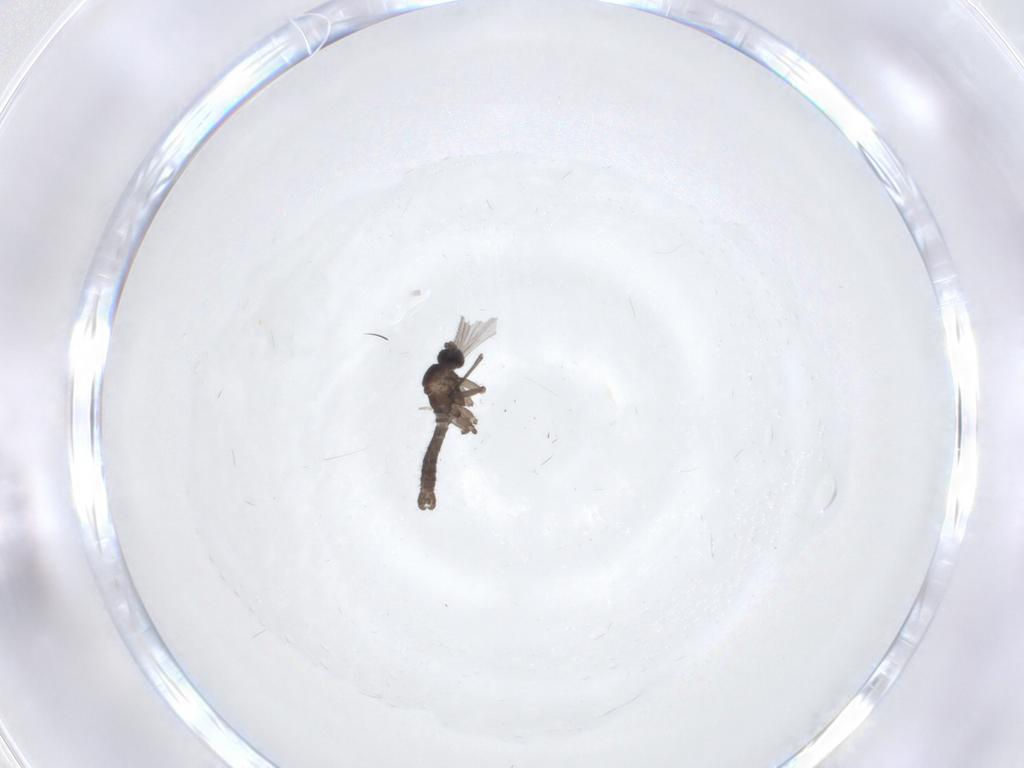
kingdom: Animalia
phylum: Arthropoda
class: Insecta
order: Diptera
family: Sciaridae
